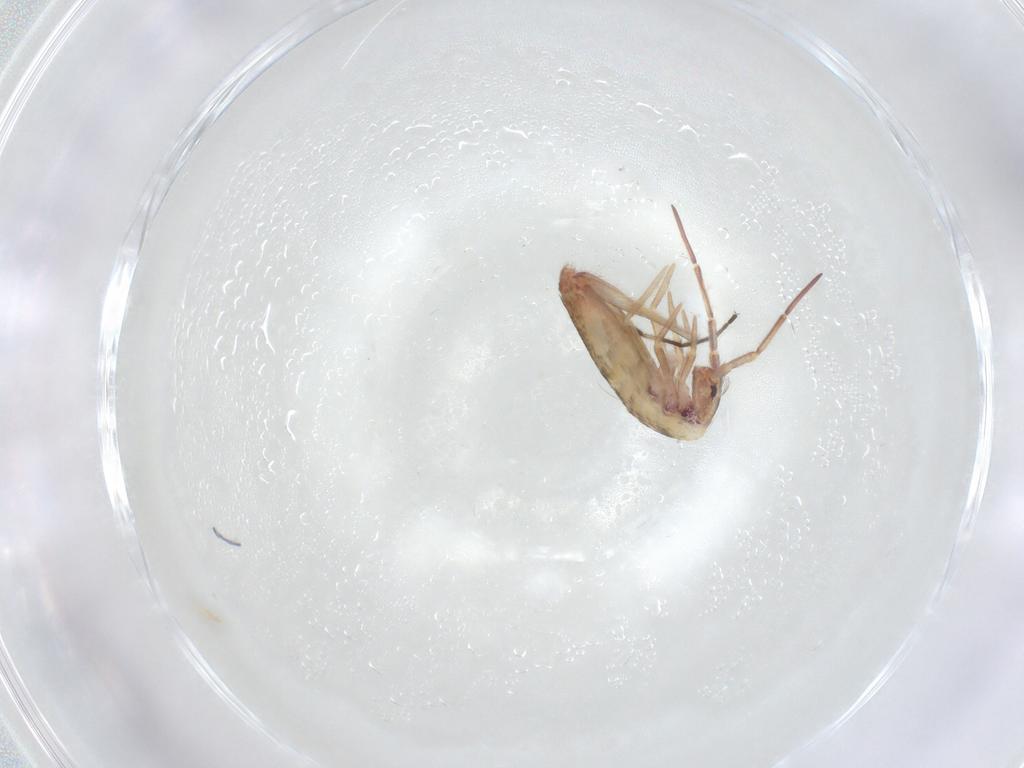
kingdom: Animalia
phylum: Arthropoda
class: Collembola
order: Entomobryomorpha
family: Entomobryidae
